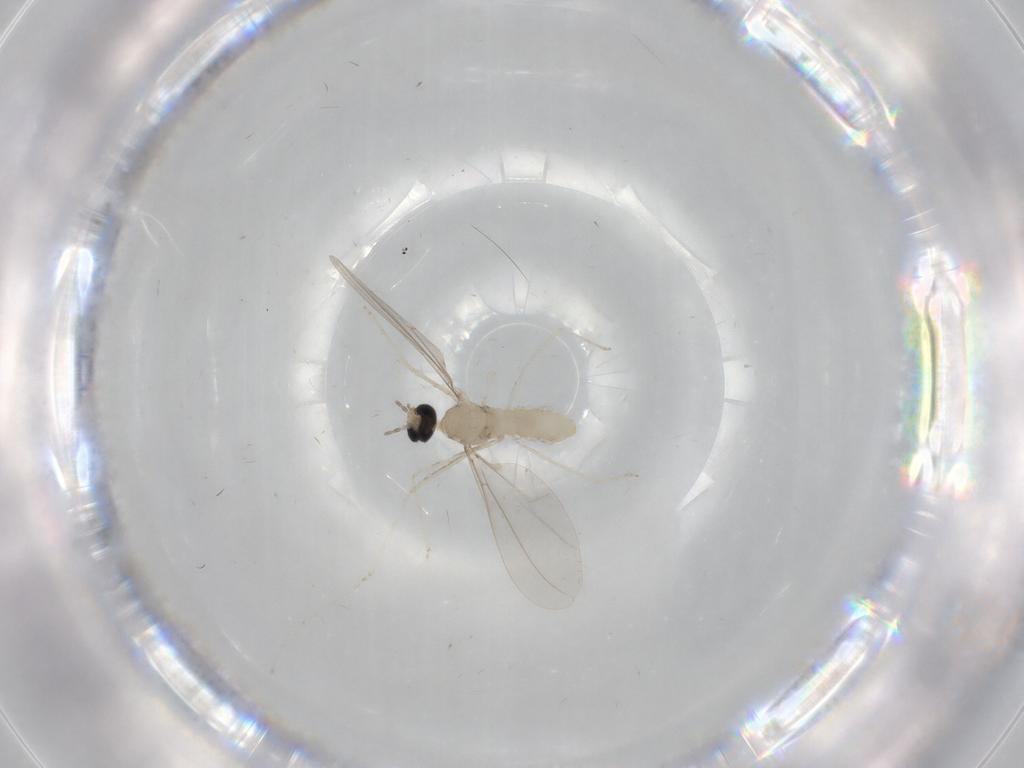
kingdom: Animalia
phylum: Arthropoda
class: Insecta
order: Diptera
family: Cecidomyiidae
